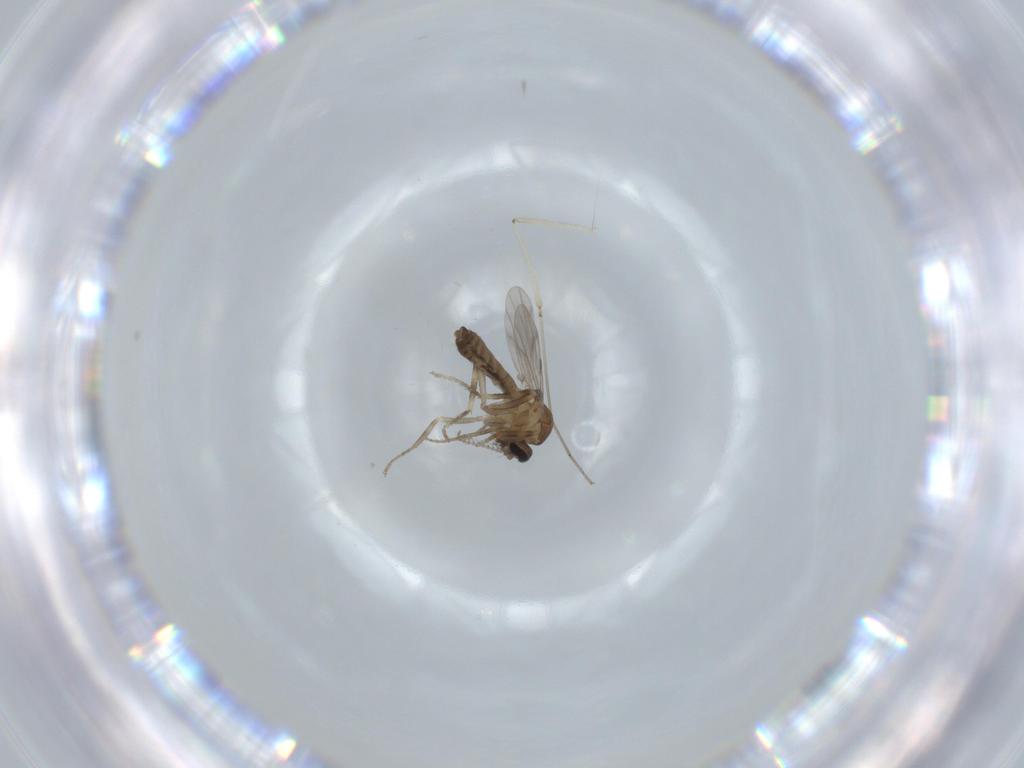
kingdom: Animalia
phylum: Arthropoda
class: Insecta
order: Diptera
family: Ceratopogonidae
